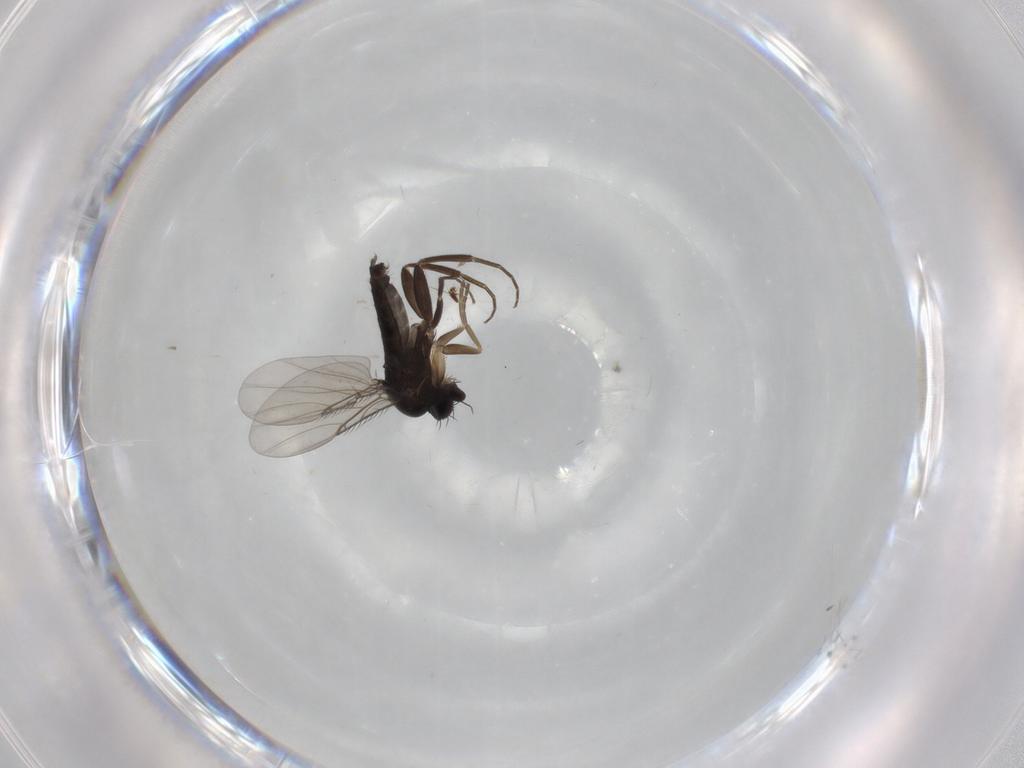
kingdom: Animalia
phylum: Arthropoda
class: Insecta
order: Diptera
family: Phoridae
